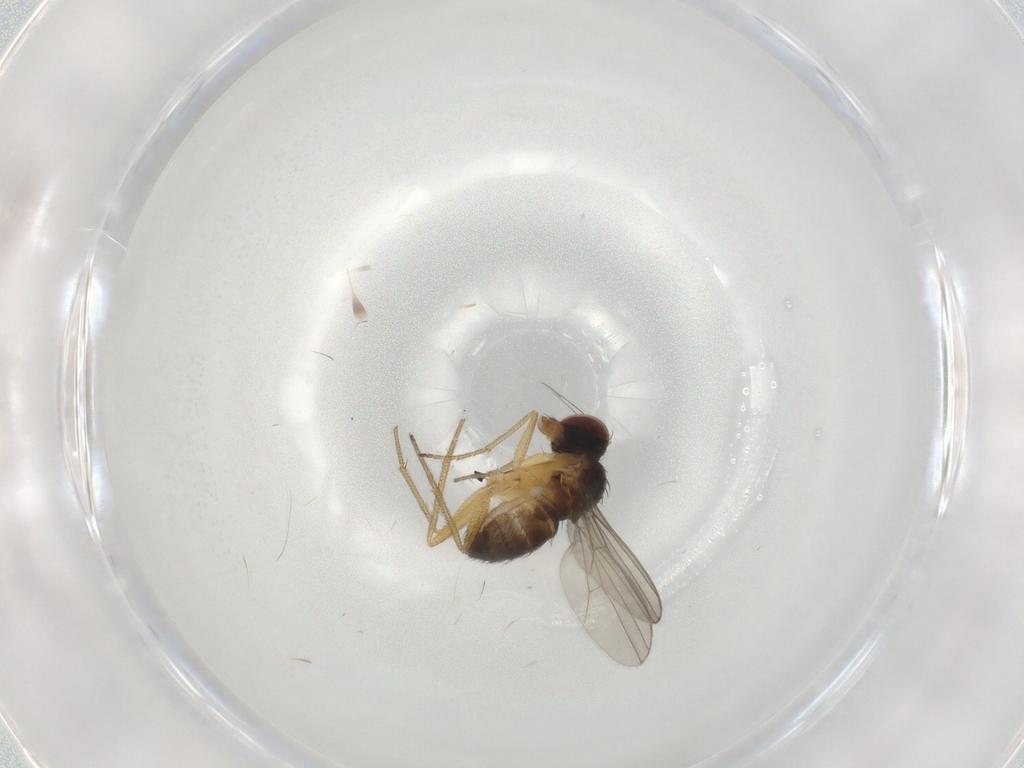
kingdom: Animalia
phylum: Arthropoda
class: Insecta
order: Diptera
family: Dolichopodidae
